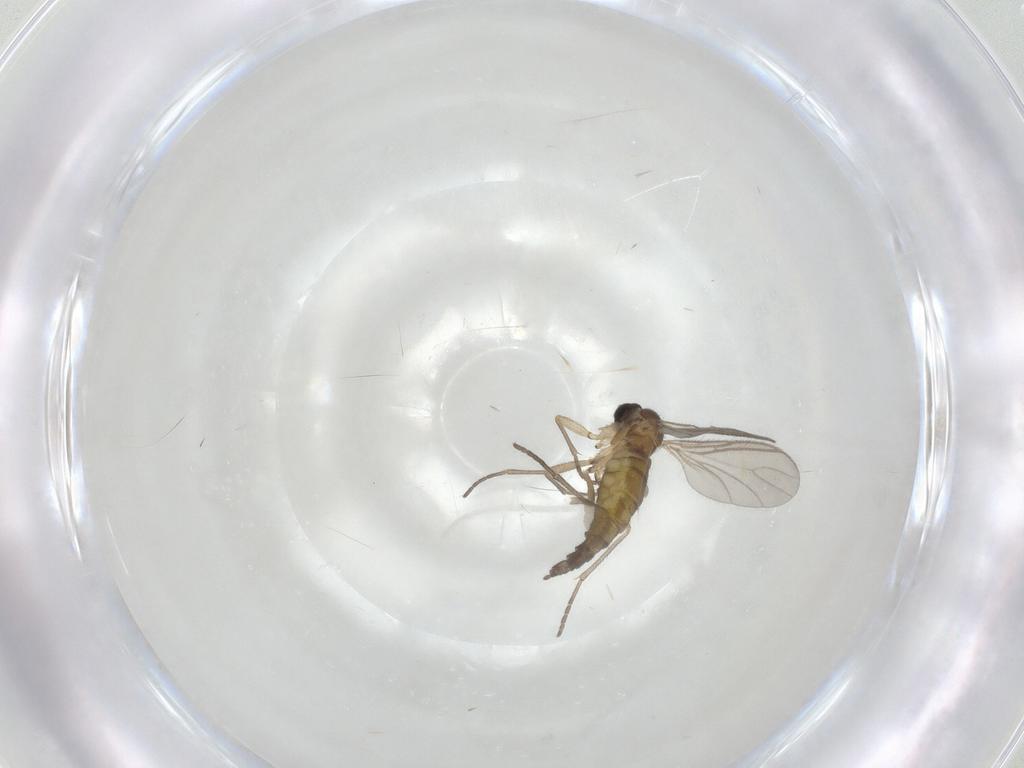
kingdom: Animalia
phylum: Arthropoda
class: Insecta
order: Diptera
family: Sciaridae
